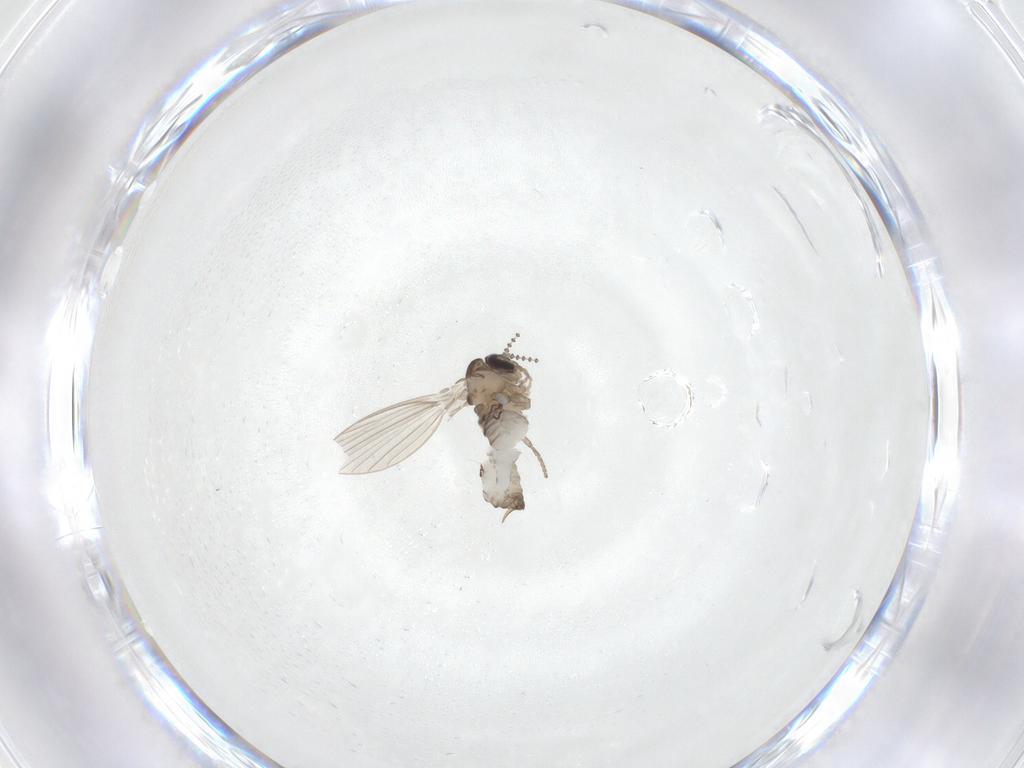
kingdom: Animalia
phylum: Arthropoda
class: Insecta
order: Diptera
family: Psychodidae
